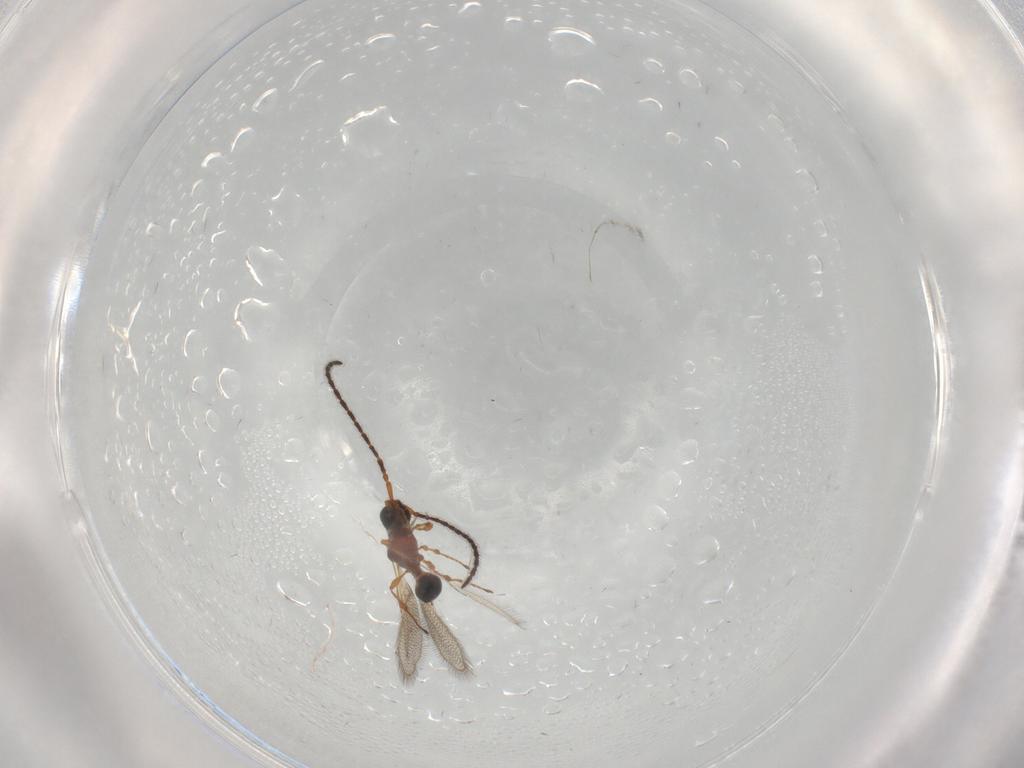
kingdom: Animalia
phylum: Arthropoda
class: Insecta
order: Hymenoptera
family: Diapriidae
